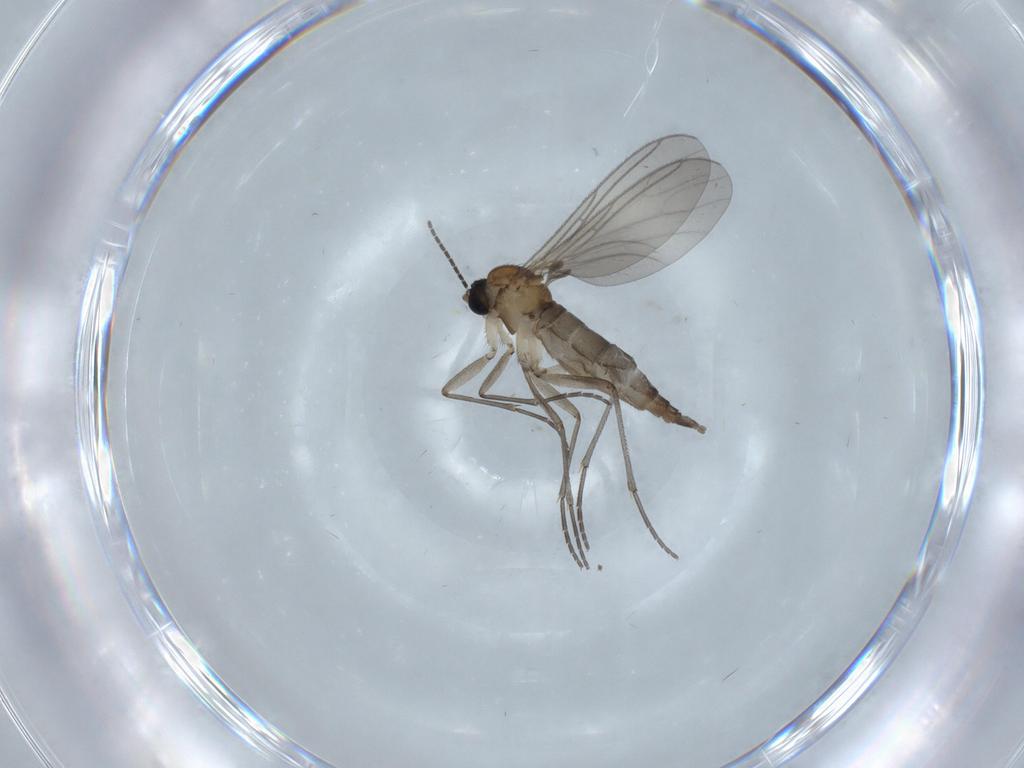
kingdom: Animalia
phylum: Arthropoda
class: Insecta
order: Diptera
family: Sciaridae
